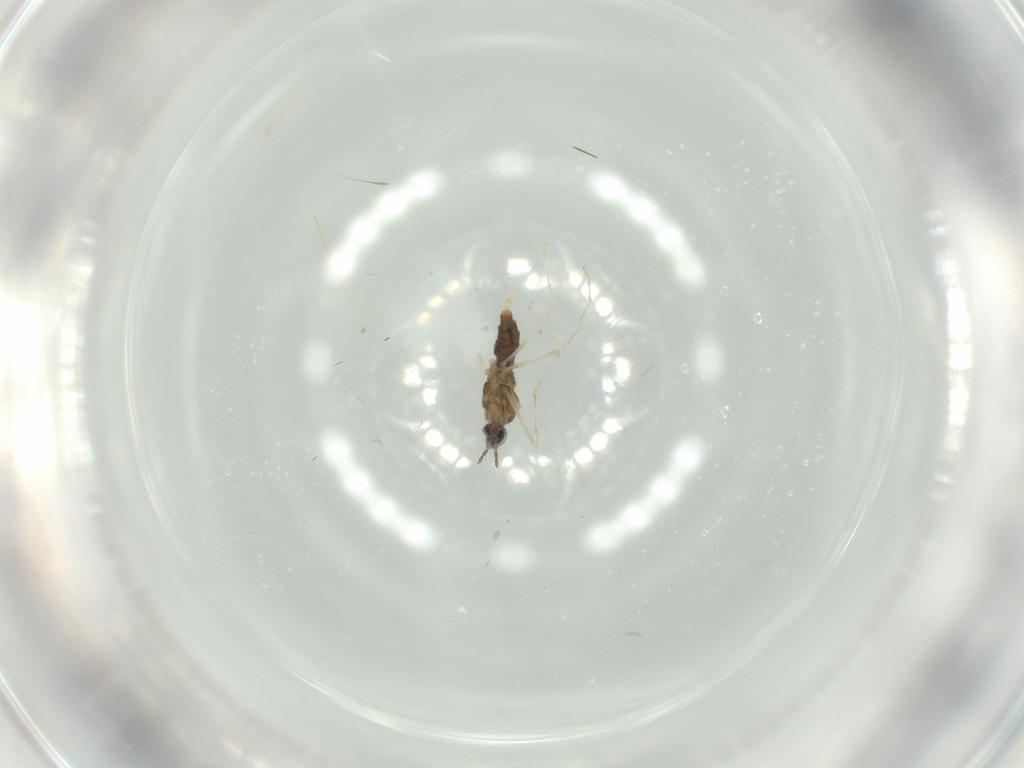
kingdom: Animalia
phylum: Arthropoda
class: Insecta
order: Diptera
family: Cecidomyiidae
